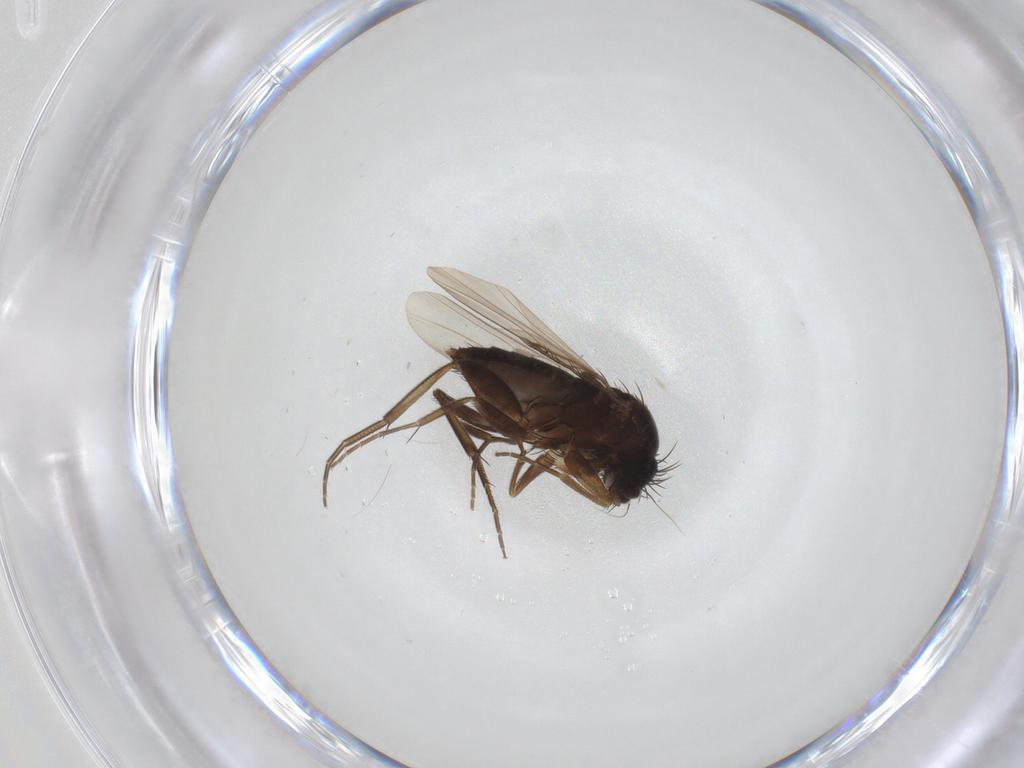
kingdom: Animalia
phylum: Arthropoda
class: Insecta
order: Diptera
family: Phoridae
